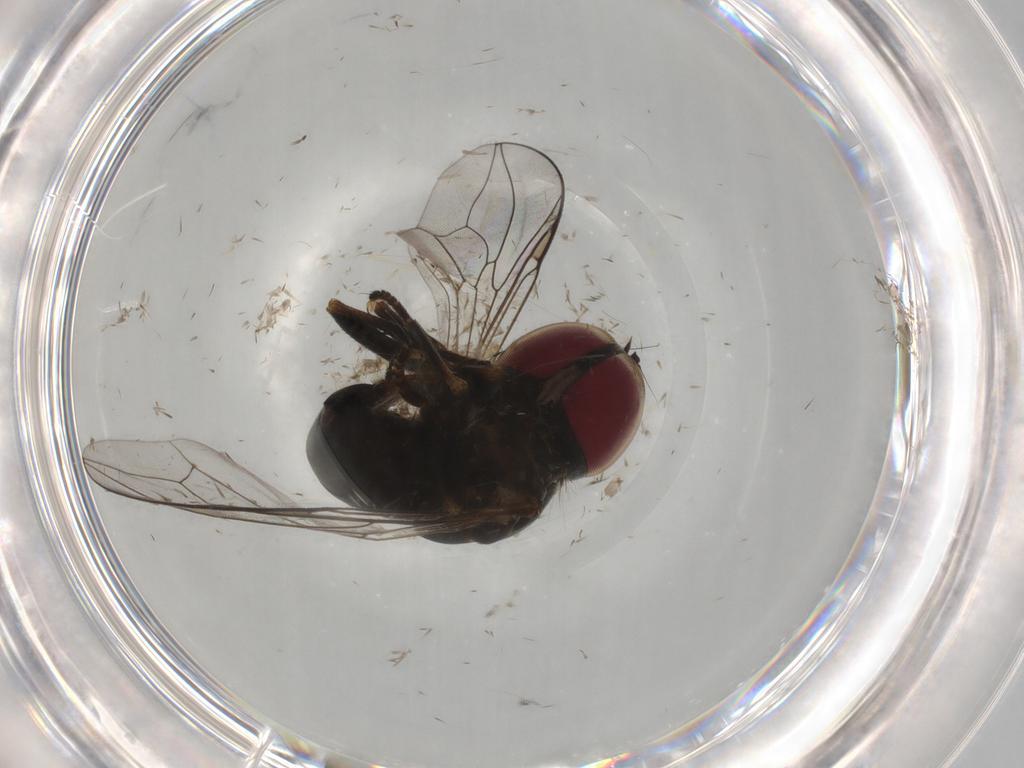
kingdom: Animalia
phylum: Arthropoda
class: Insecta
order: Diptera
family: Pipunculidae
